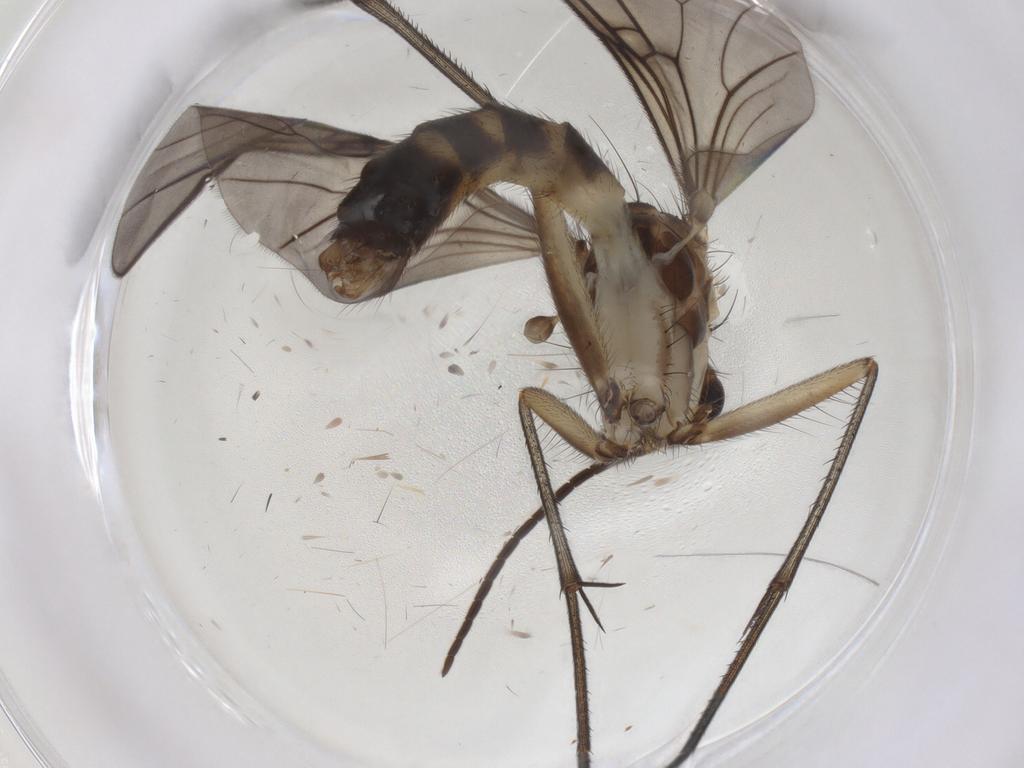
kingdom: Animalia
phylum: Arthropoda
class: Insecta
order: Diptera
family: Mycetophilidae
